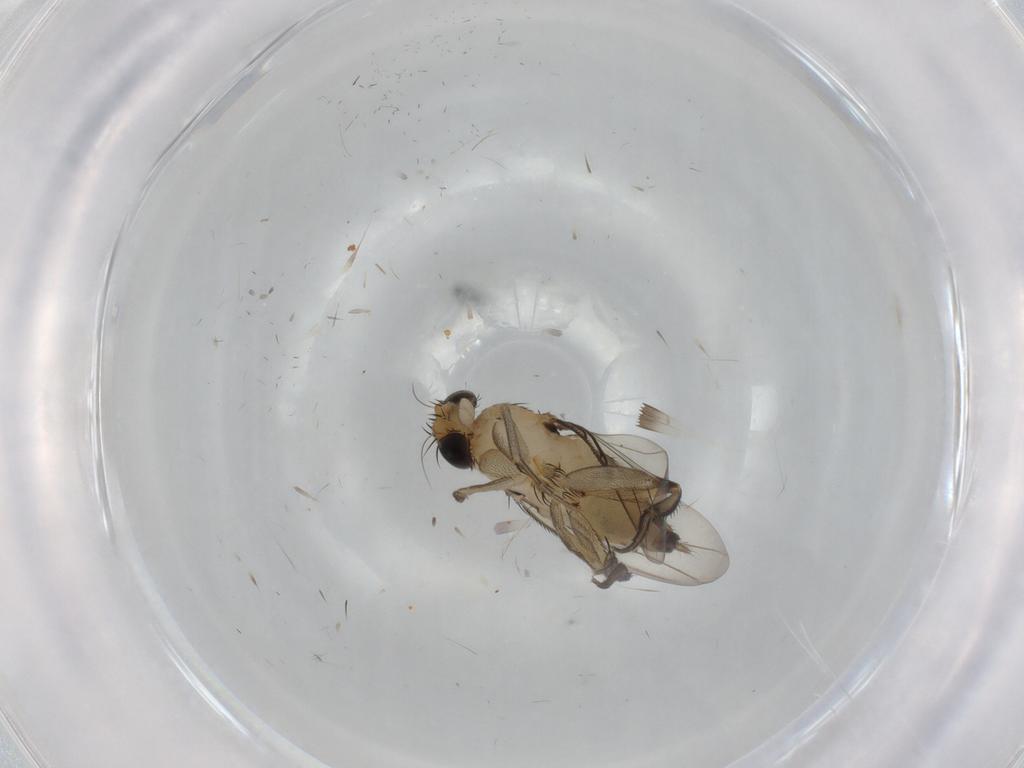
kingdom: Animalia
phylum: Arthropoda
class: Insecta
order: Diptera
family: Phoridae
